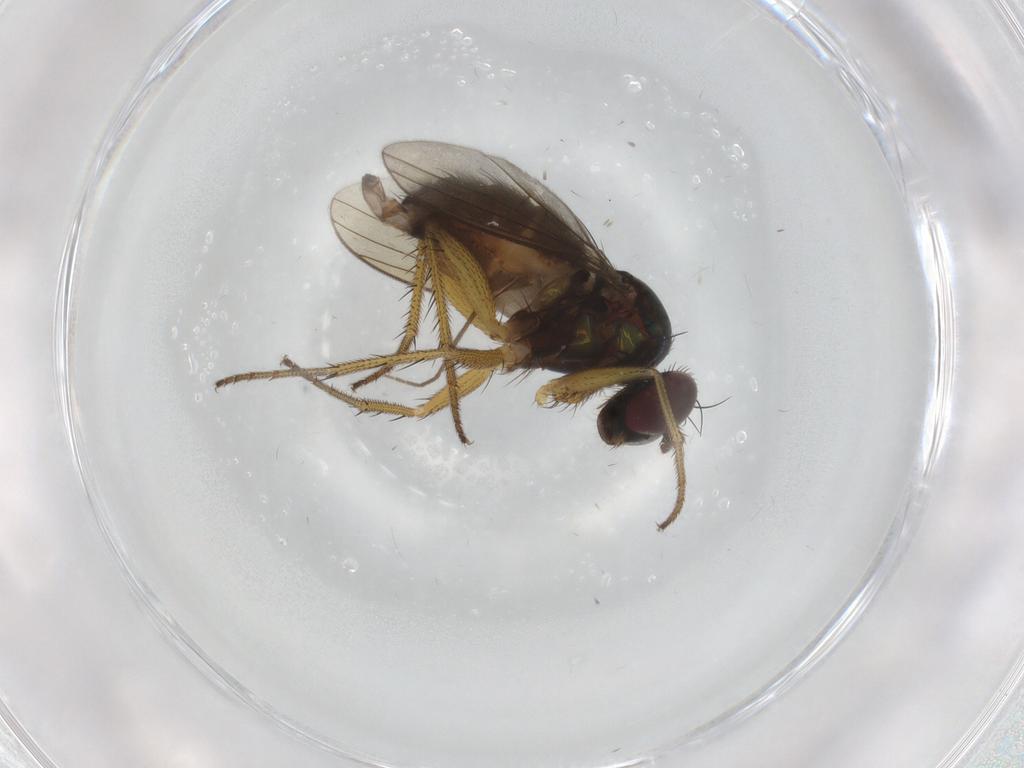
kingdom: Animalia
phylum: Arthropoda
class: Insecta
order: Diptera
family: Dolichopodidae
